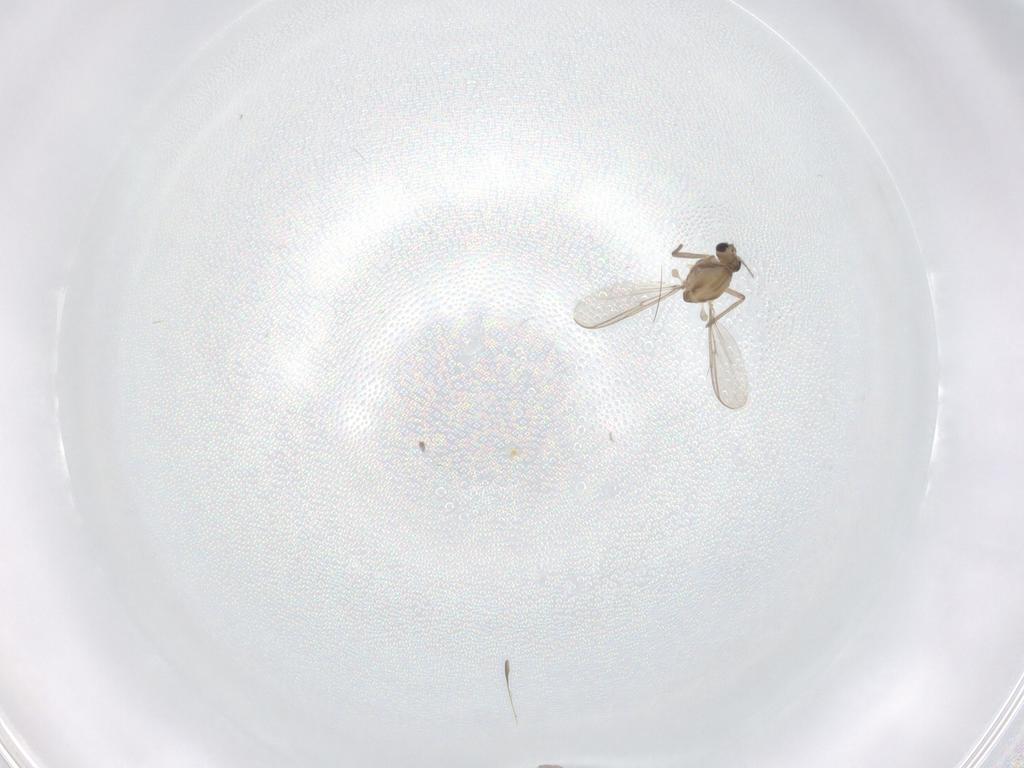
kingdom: Animalia
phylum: Arthropoda
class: Insecta
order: Diptera
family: Chironomidae
